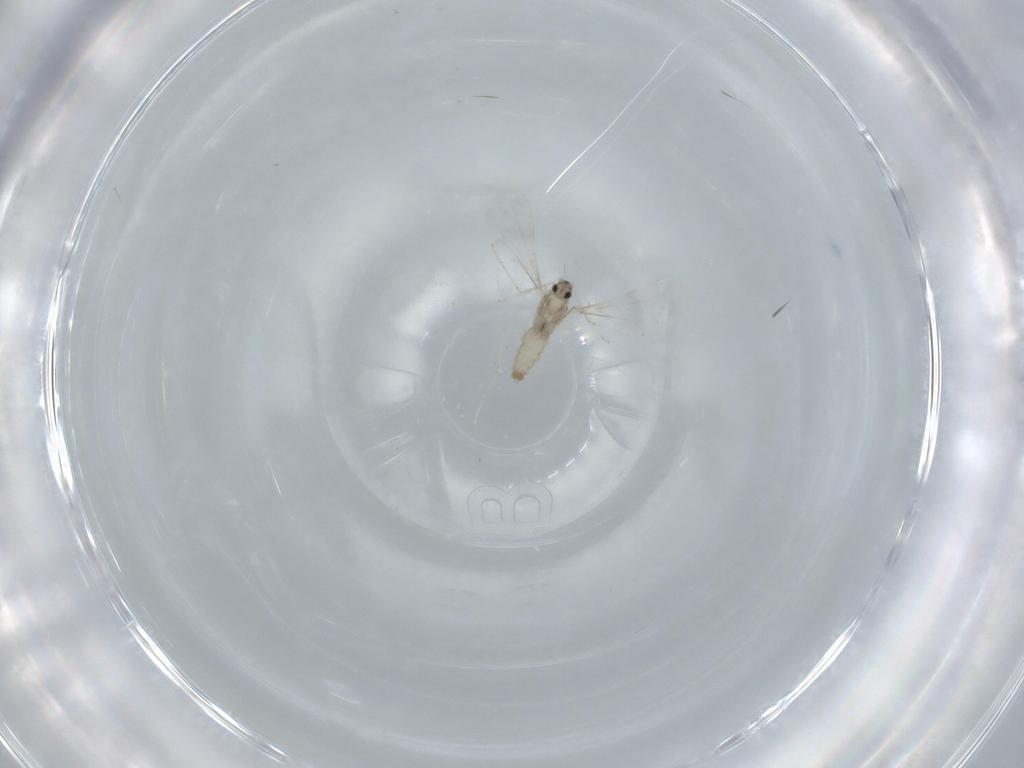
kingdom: Animalia
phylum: Arthropoda
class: Insecta
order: Diptera
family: Cecidomyiidae
